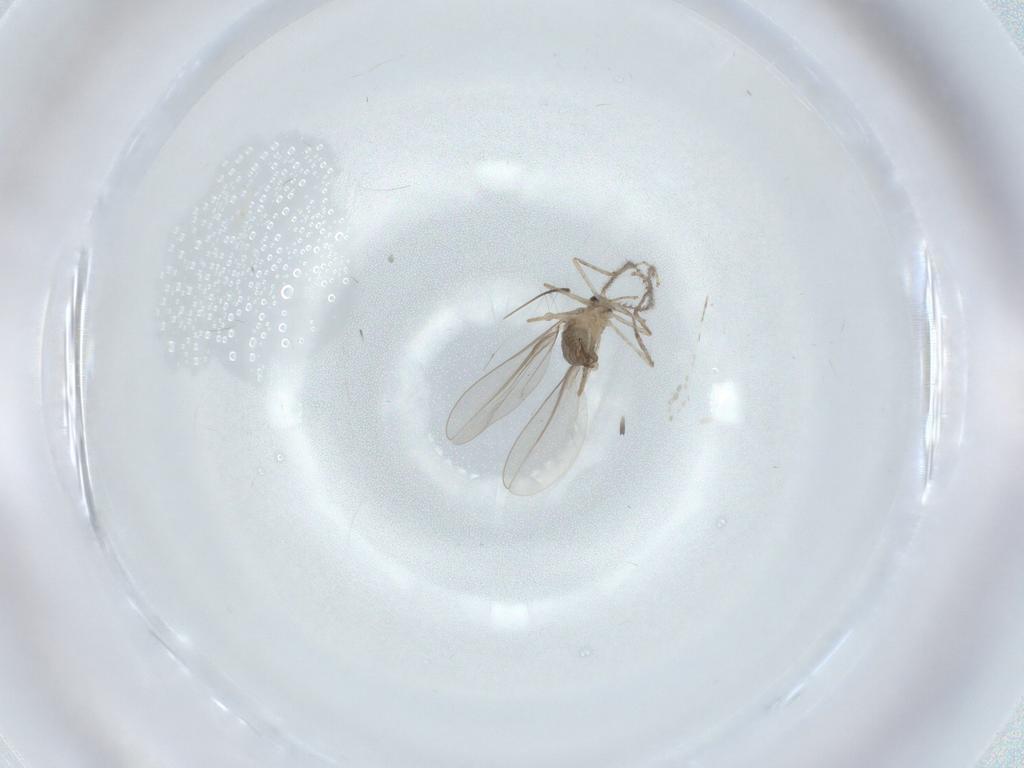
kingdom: Animalia
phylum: Arthropoda
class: Insecta
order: Diptera
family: Cecidomyiidae
